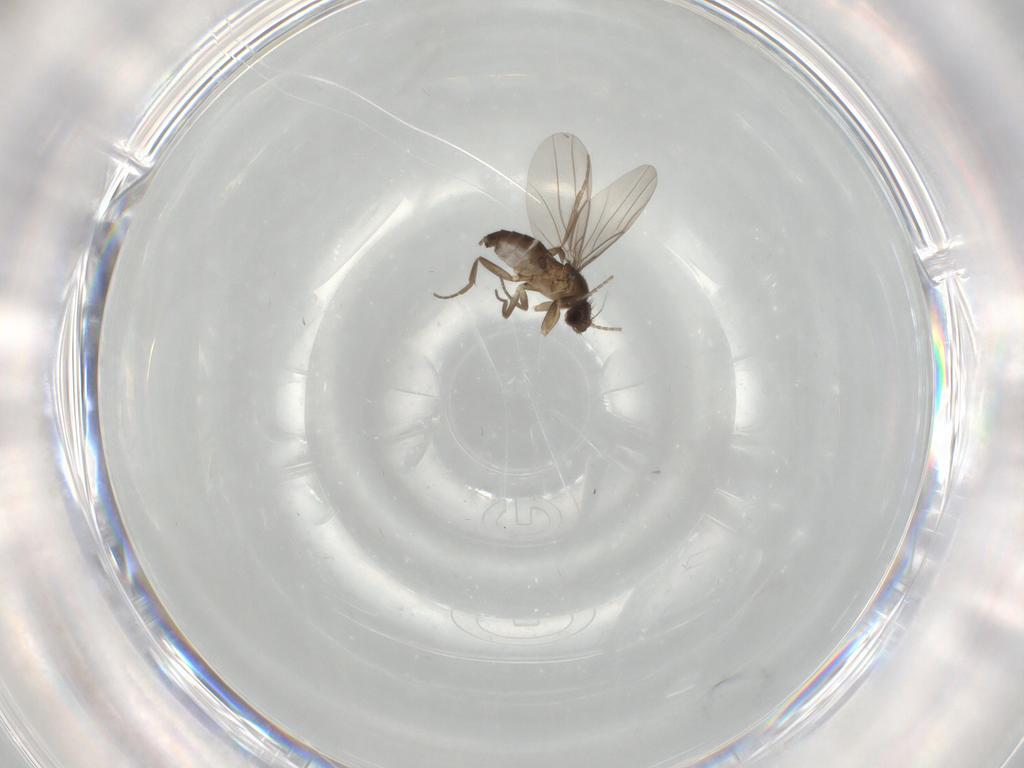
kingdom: Animalia
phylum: Arthropoda
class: Insecta
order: Diptera
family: Phoridae
